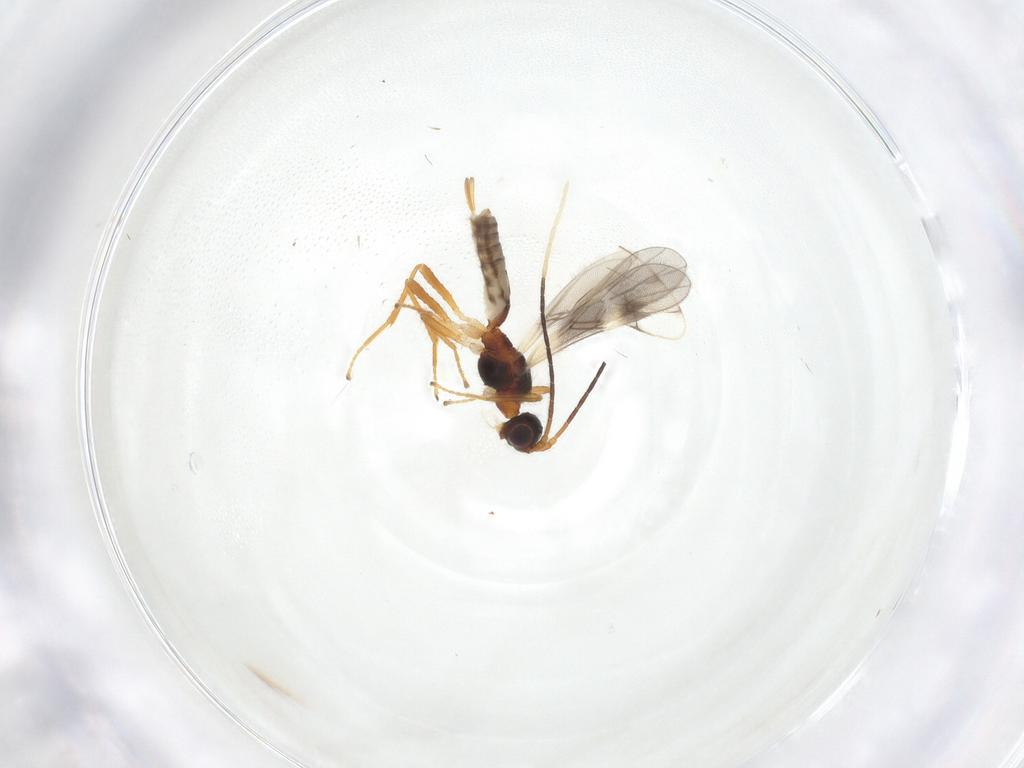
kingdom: Animalia
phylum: Arthropoda
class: Insecta
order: Hymenoptera
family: Braconidae
